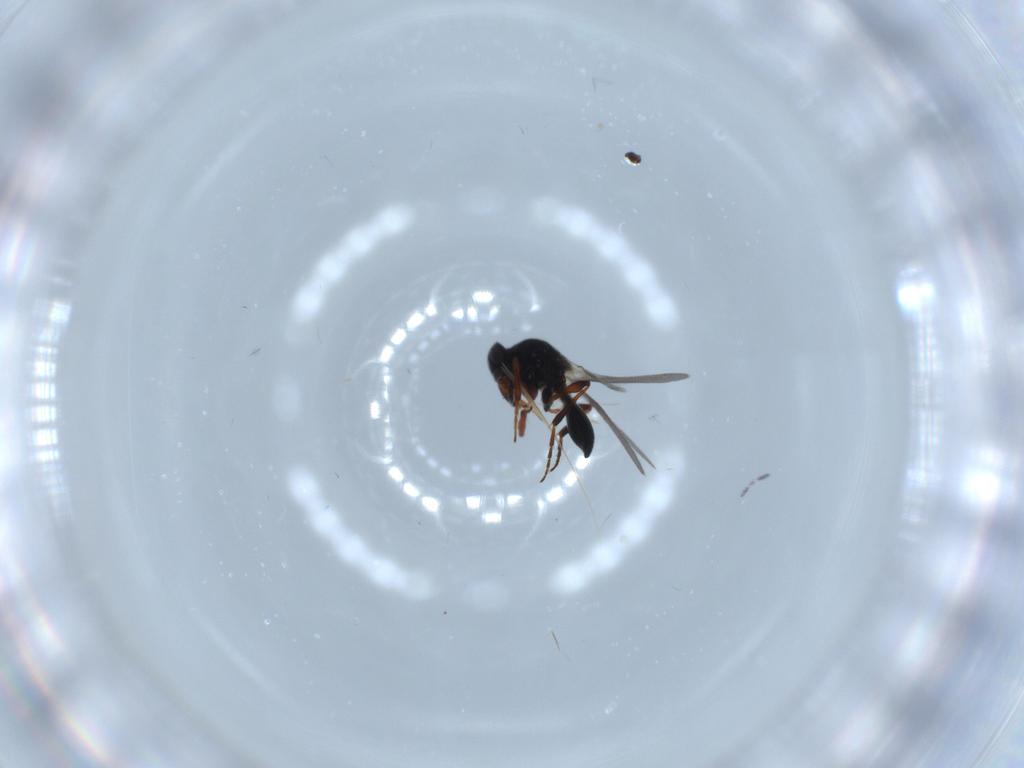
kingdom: Animalia
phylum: Arthropoda
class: Insecta
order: Hymenoptera
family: Platygastridae
